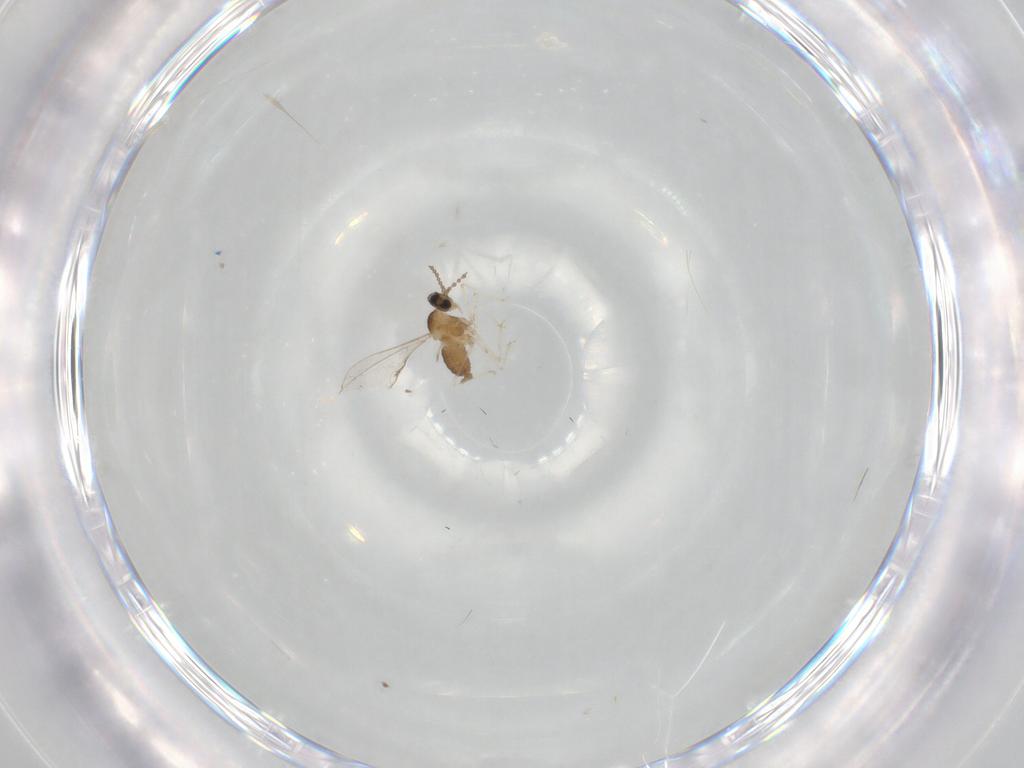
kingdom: Animalia
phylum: Arthropoda
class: Insecta
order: Diptera
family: Cecidomyiidae
